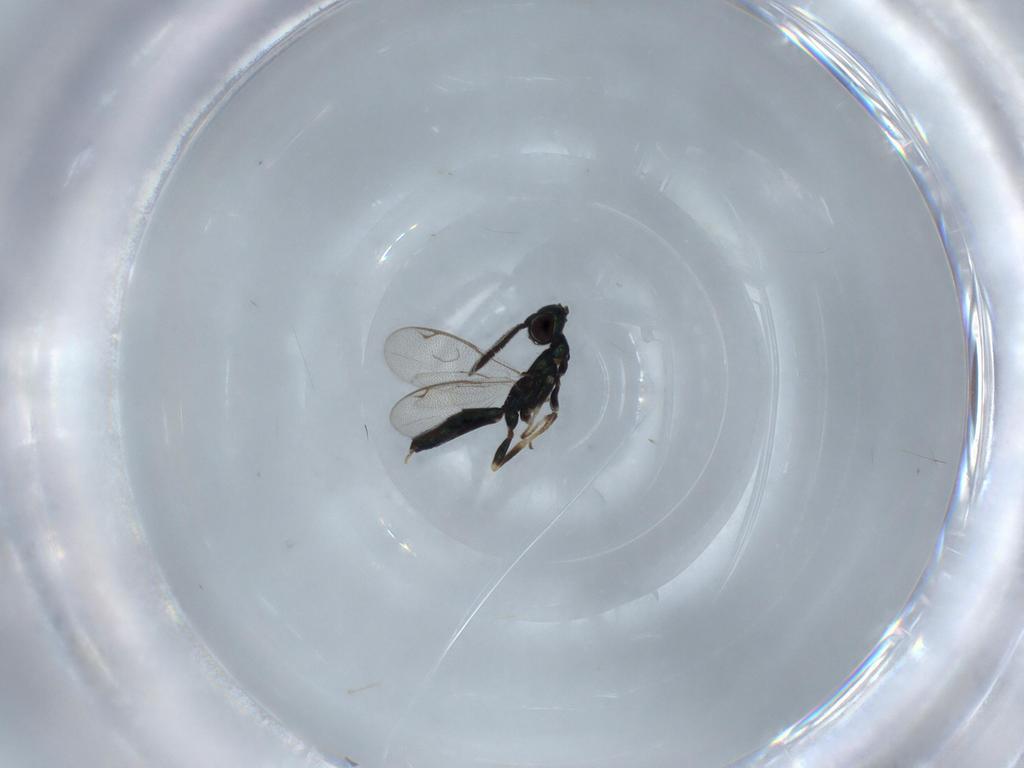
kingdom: Animalia
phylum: Arthropoda
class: Insecta
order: Hymenoptera
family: Eupelmidae
